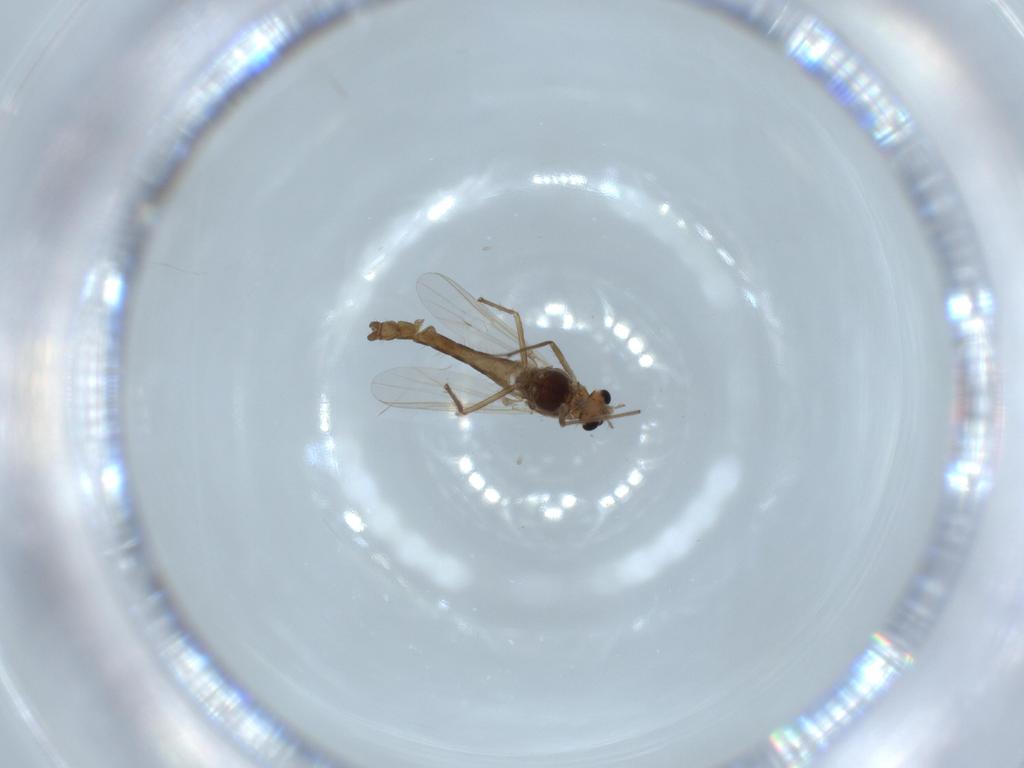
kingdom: Animalia
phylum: Arthropoda
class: Insecta
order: Diptera
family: Chironomidae
